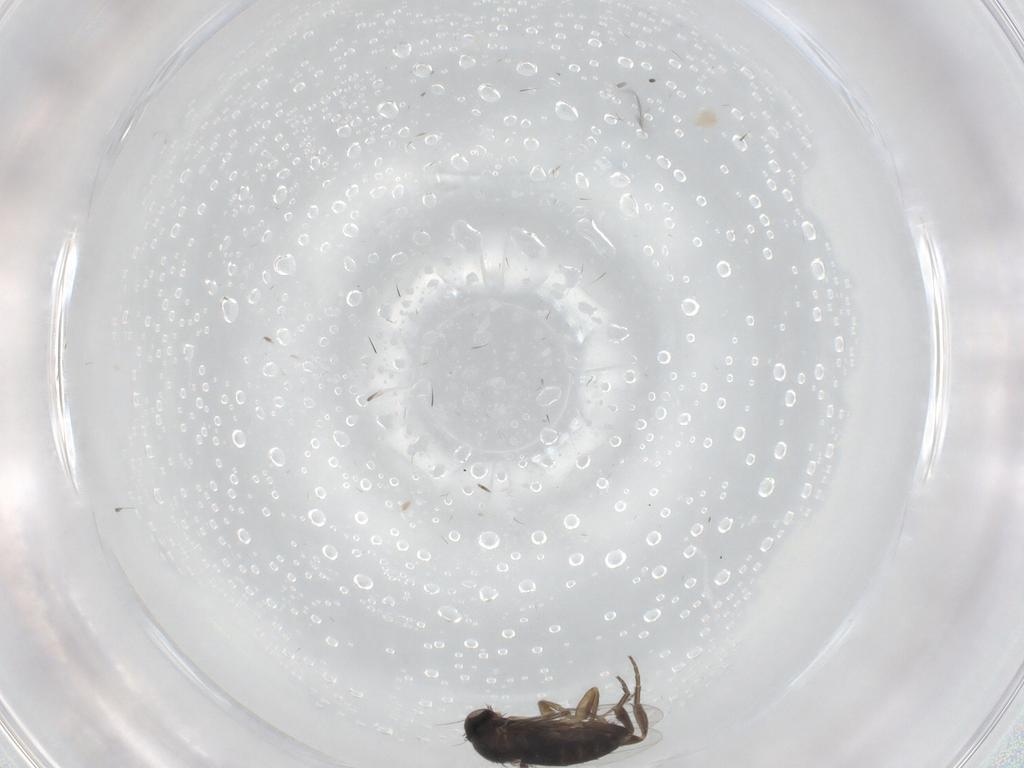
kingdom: Animalia
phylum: Arthropoda
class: Insecta
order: Diptera
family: Phoridae
